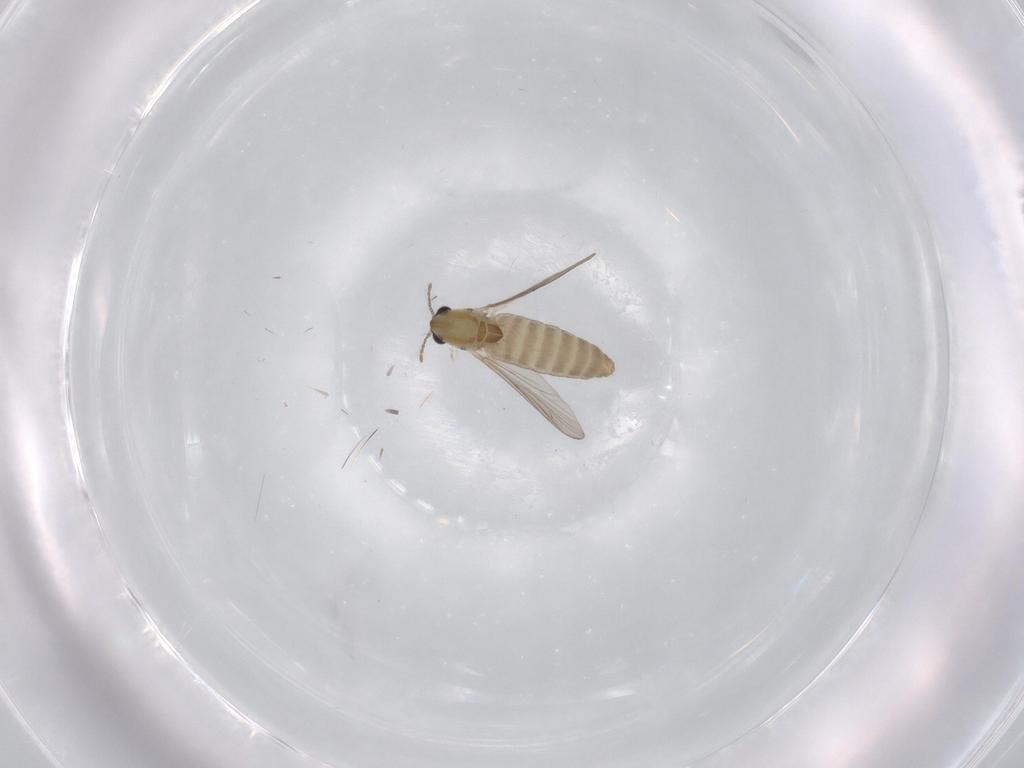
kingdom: Animalia
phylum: Arthropoda
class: Insecta
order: Diptera
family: Chironomidae
